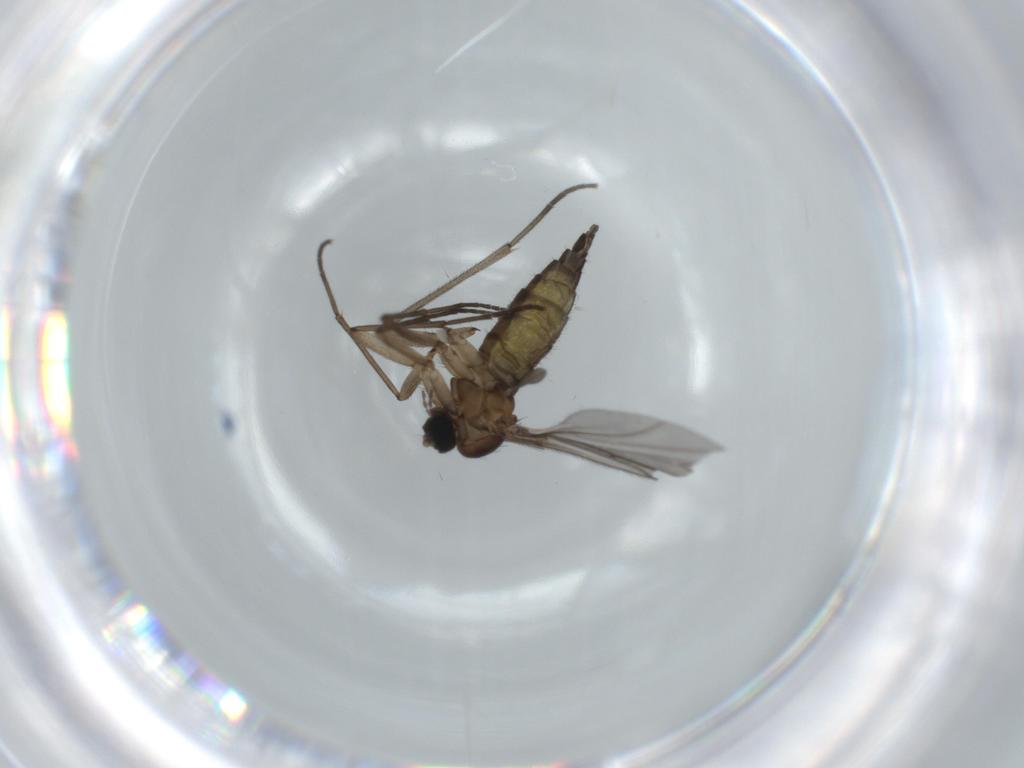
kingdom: Animalia
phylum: Arthropoda
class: Insecta
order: Diptera
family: Sciaridae
